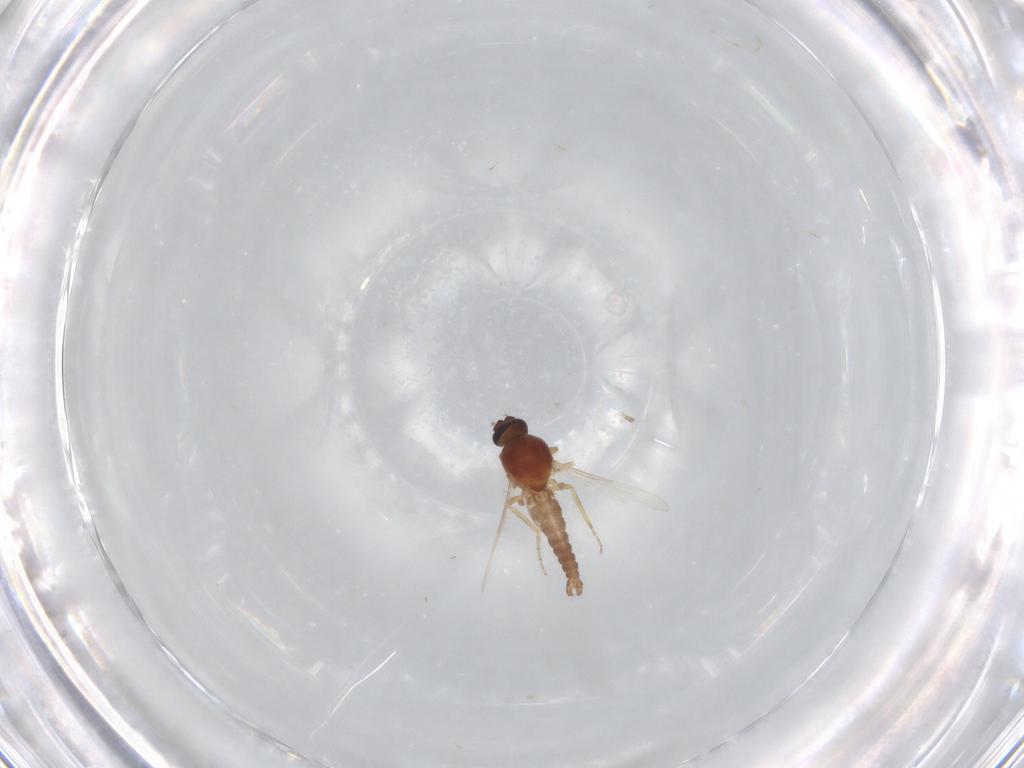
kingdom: Animalia
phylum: Arthropoda
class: Insecta
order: Diptera
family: Ceratopogonidae
